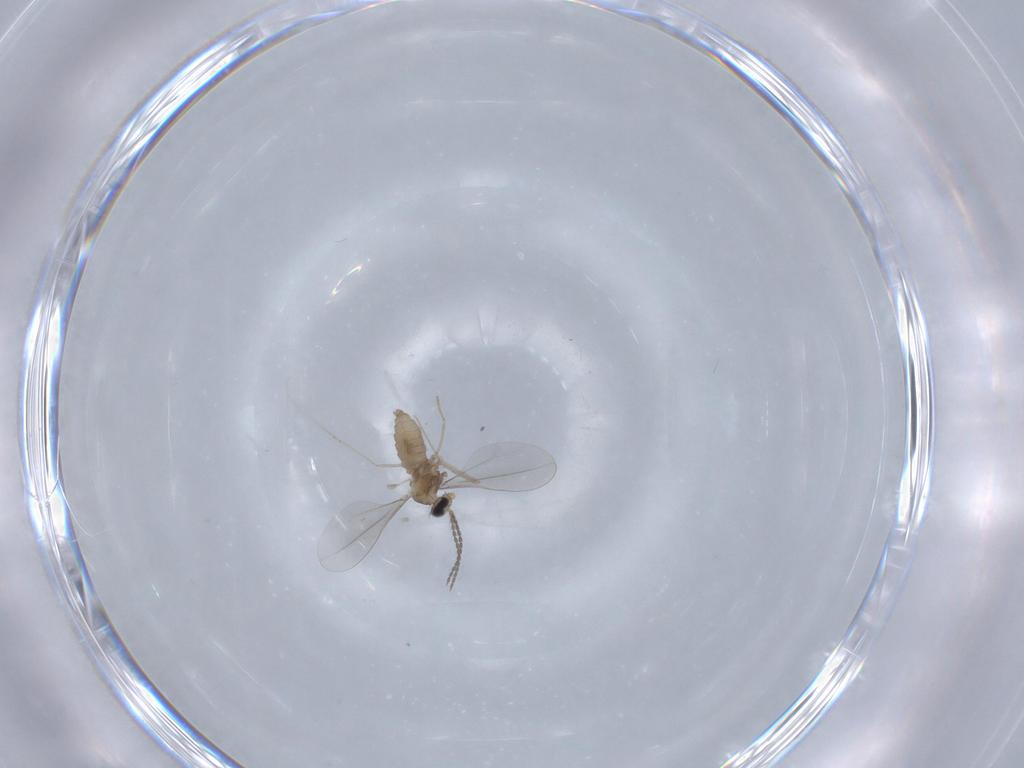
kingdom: Animalia
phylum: Arthropoda
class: Insecta
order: Diptera
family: Cecidomyiidae
